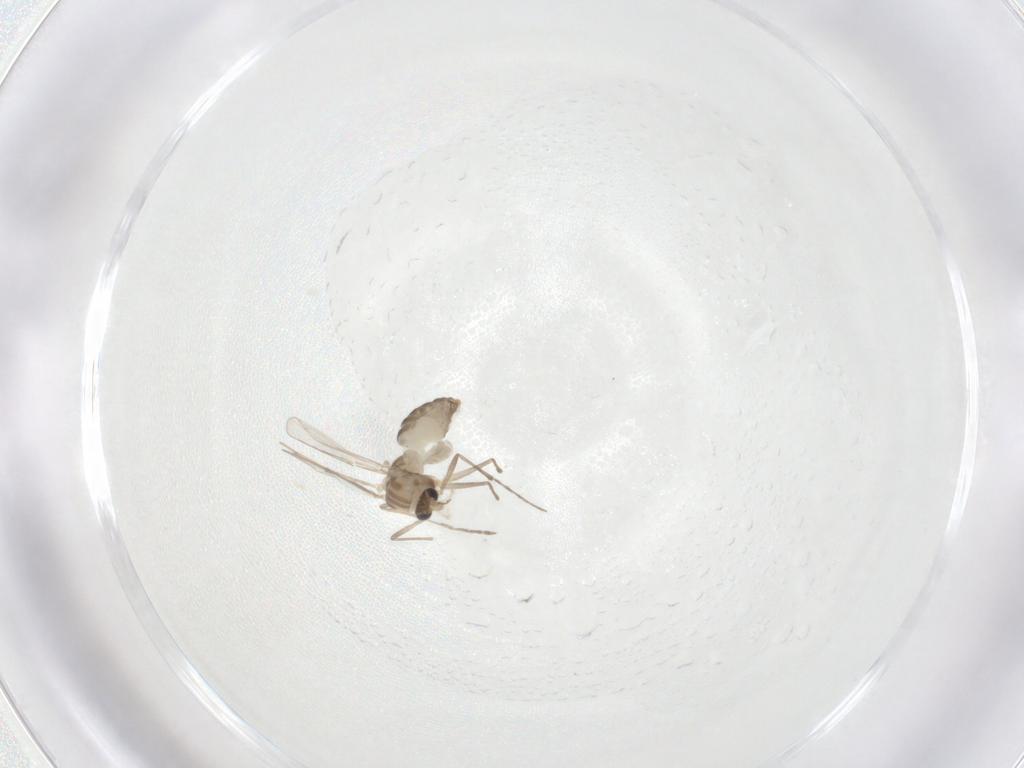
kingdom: Animalia
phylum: Arthropoda
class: Insecta
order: Diptera
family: Chironomidae
